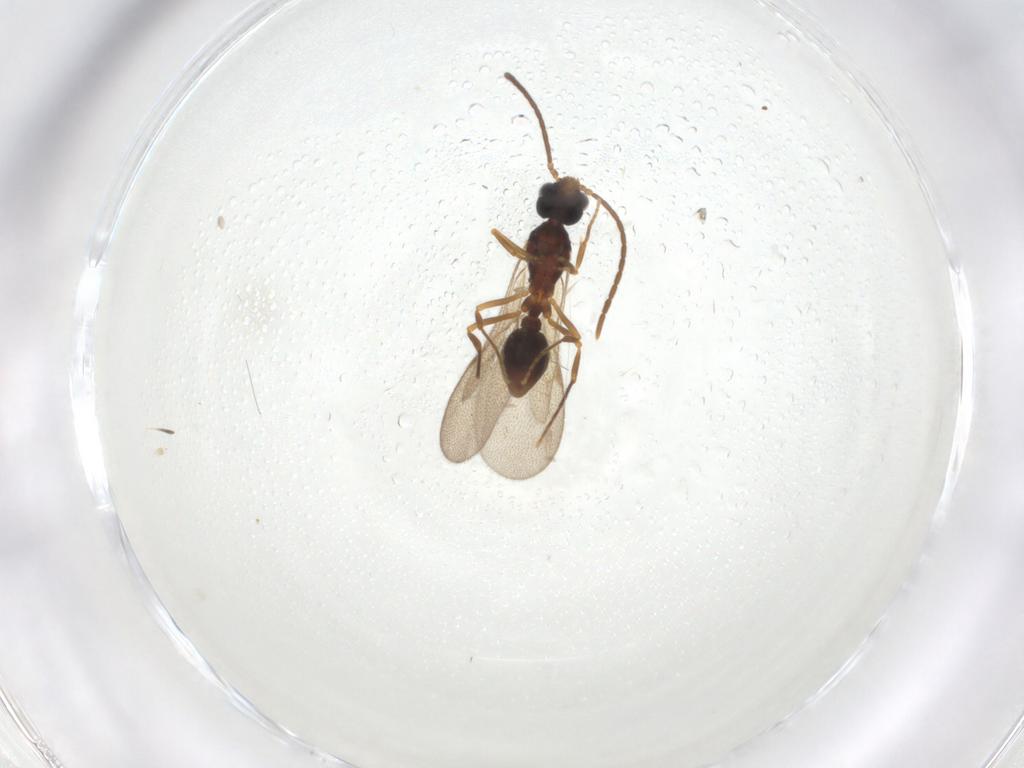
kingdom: Animalia
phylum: Arthropoda
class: Insecta
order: Hymenoptera
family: Formicidae
